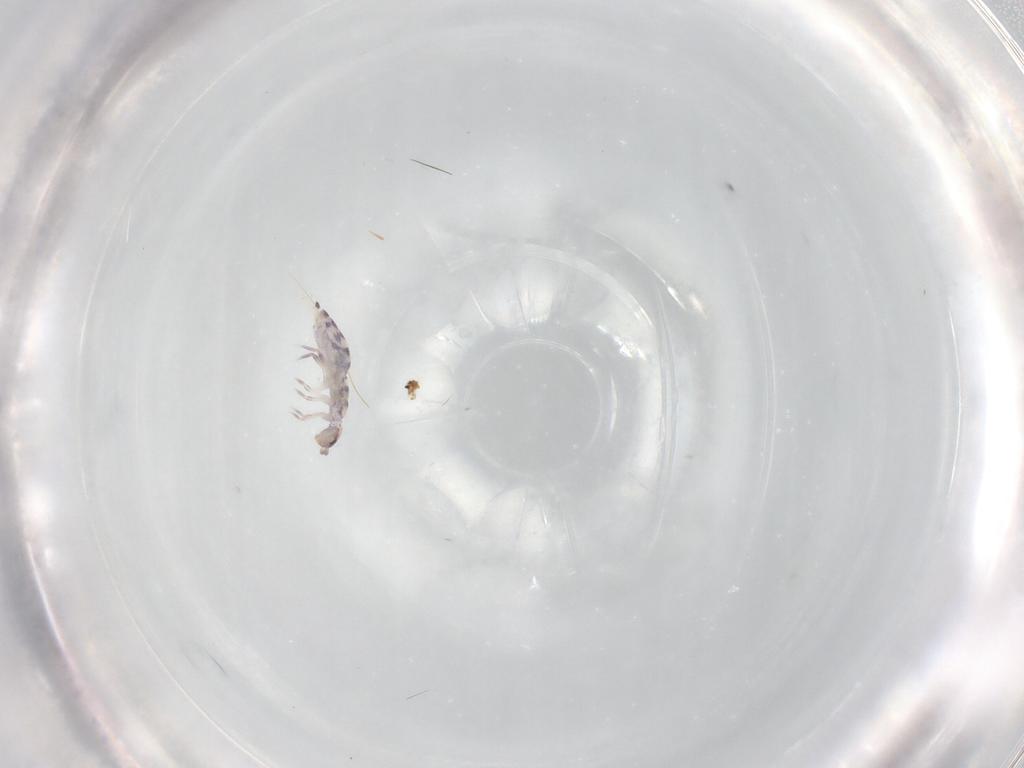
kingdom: Animalia
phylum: Arthropoda
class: Collembola
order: Entomobryomorpha
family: Entomobryidae
